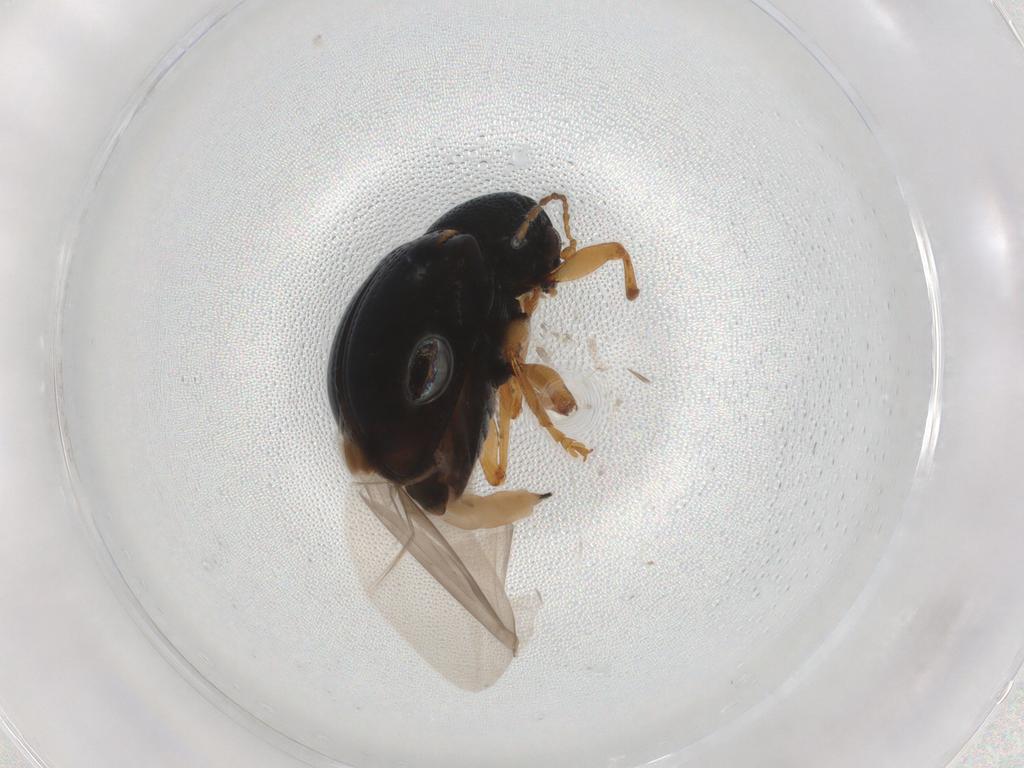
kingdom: Animalia
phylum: Arthropoda
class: Insecta
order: Coleoptera
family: Chrysomelidae
